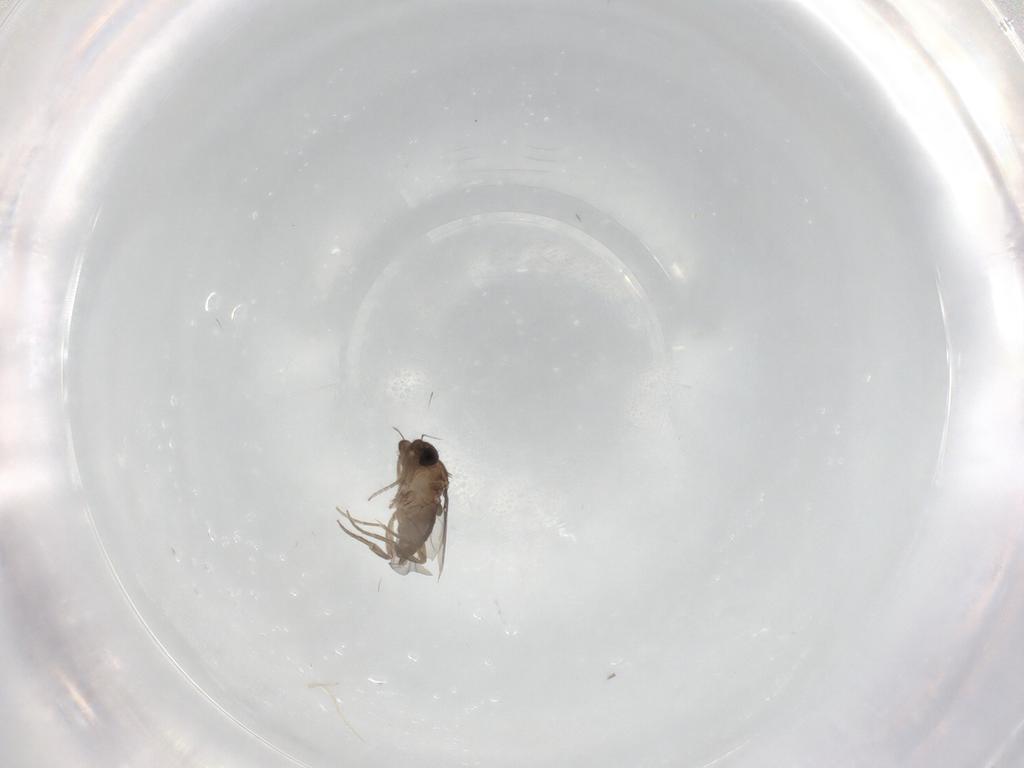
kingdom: Animalia
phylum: Arthropoda
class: Insecta
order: Diptera
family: Phoridae
